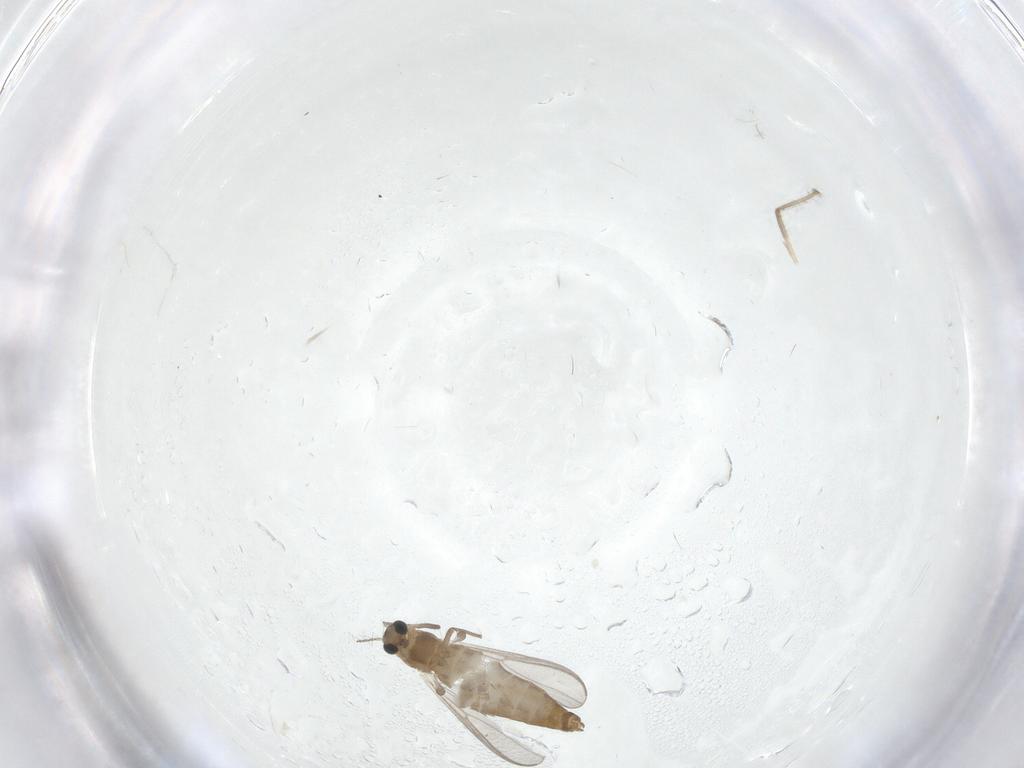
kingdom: Animalia
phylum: Arthropoda
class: Insecta
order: Diptera
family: Chironomidae
